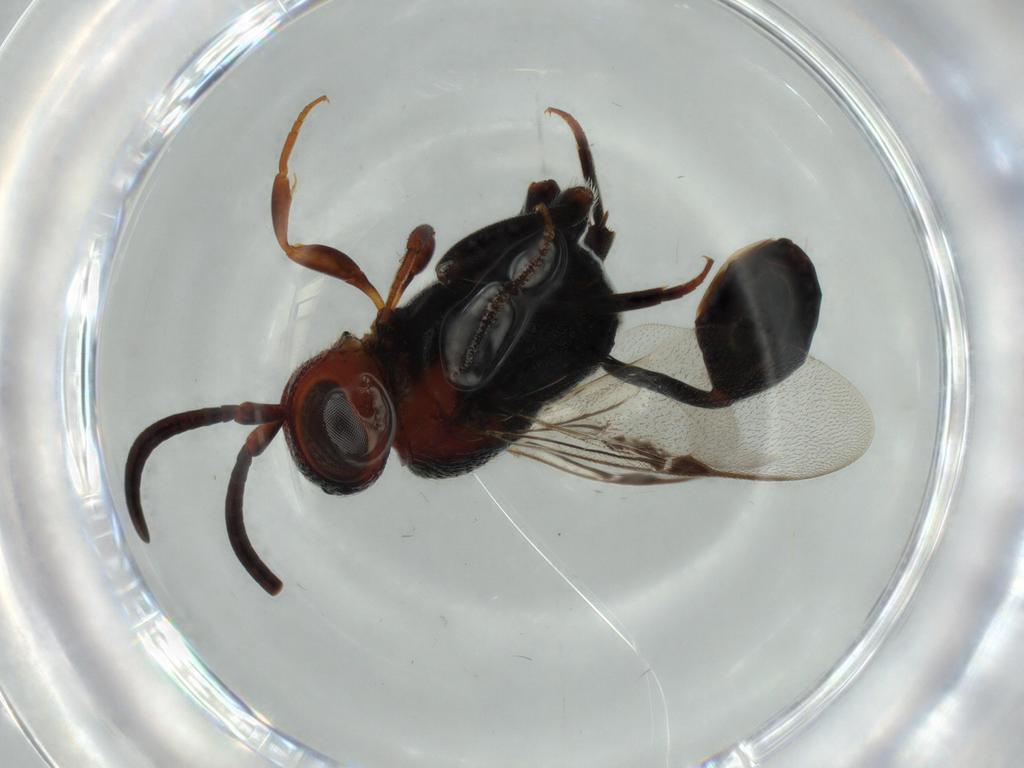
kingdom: Animalia
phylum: Arthropoda
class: Insecta
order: Hymenoptera
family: Evaniidae
